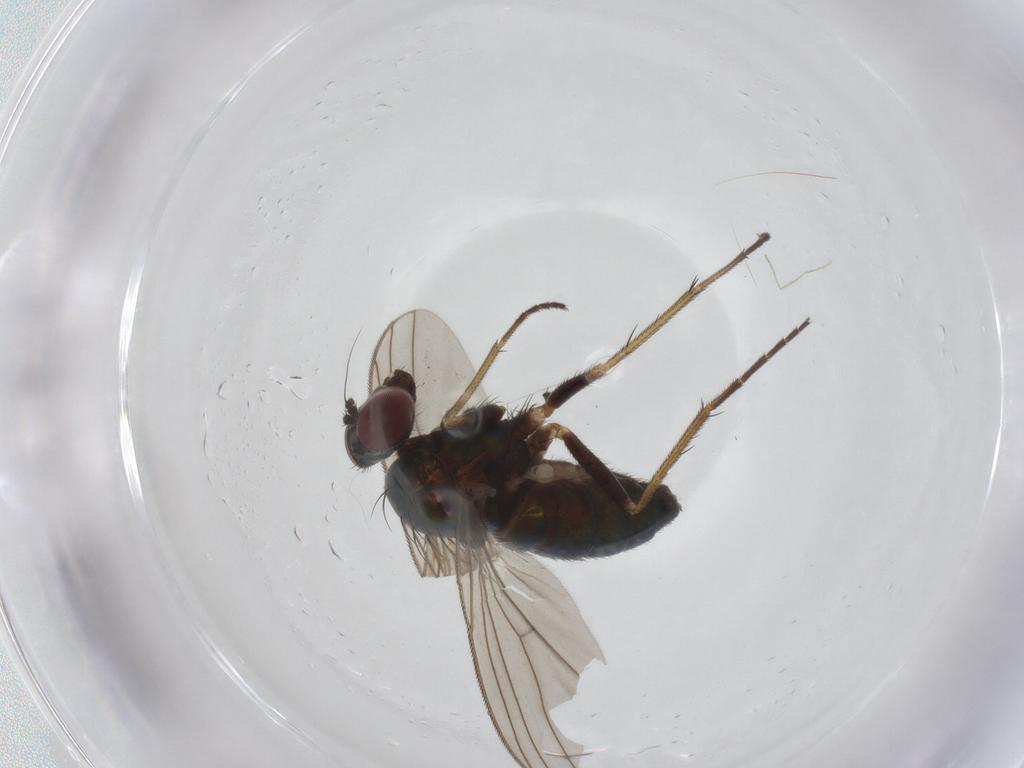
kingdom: Animalia
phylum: Arthropoda
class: Insecta
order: Diptera
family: Dolichopodidae
